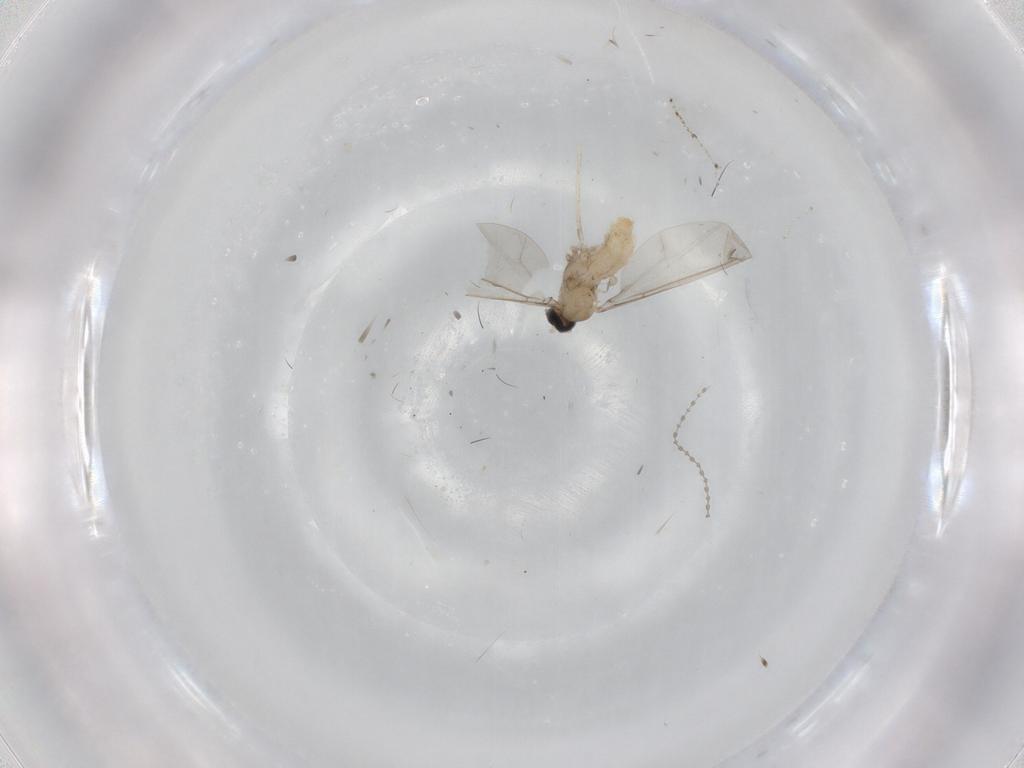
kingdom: Animalia
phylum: Arthropoda
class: Insecta
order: Diptera
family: Cecidomyiidae
